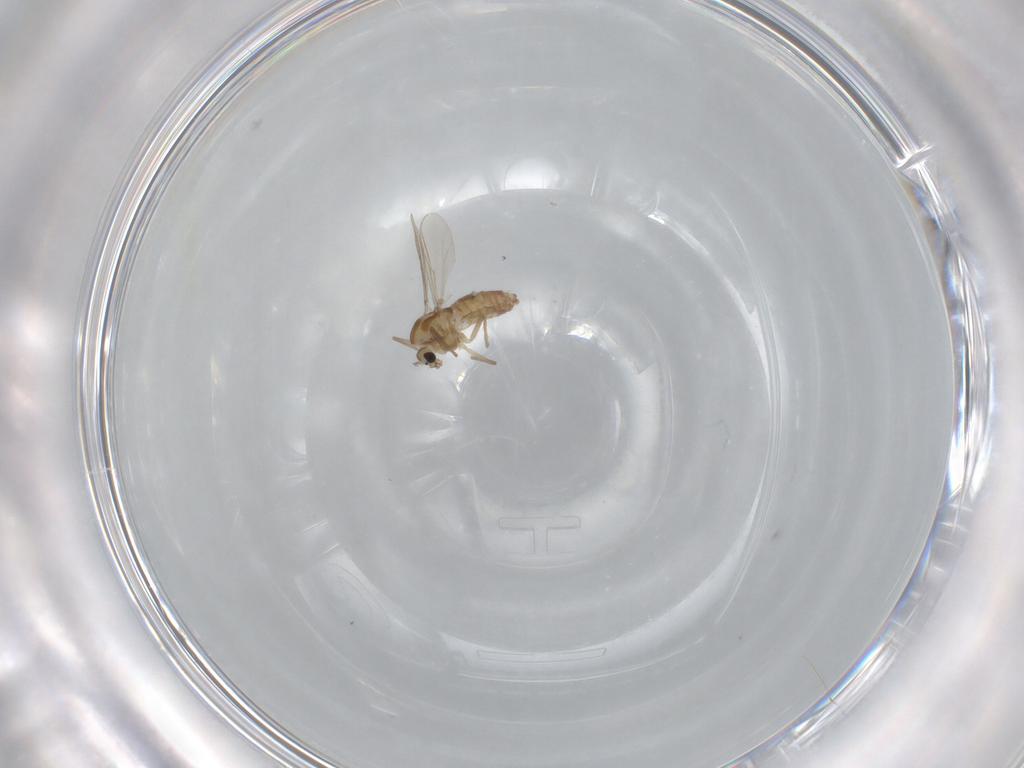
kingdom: Animalia
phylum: Arthropoda
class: Insecta
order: Diptera
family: Chironomidae
